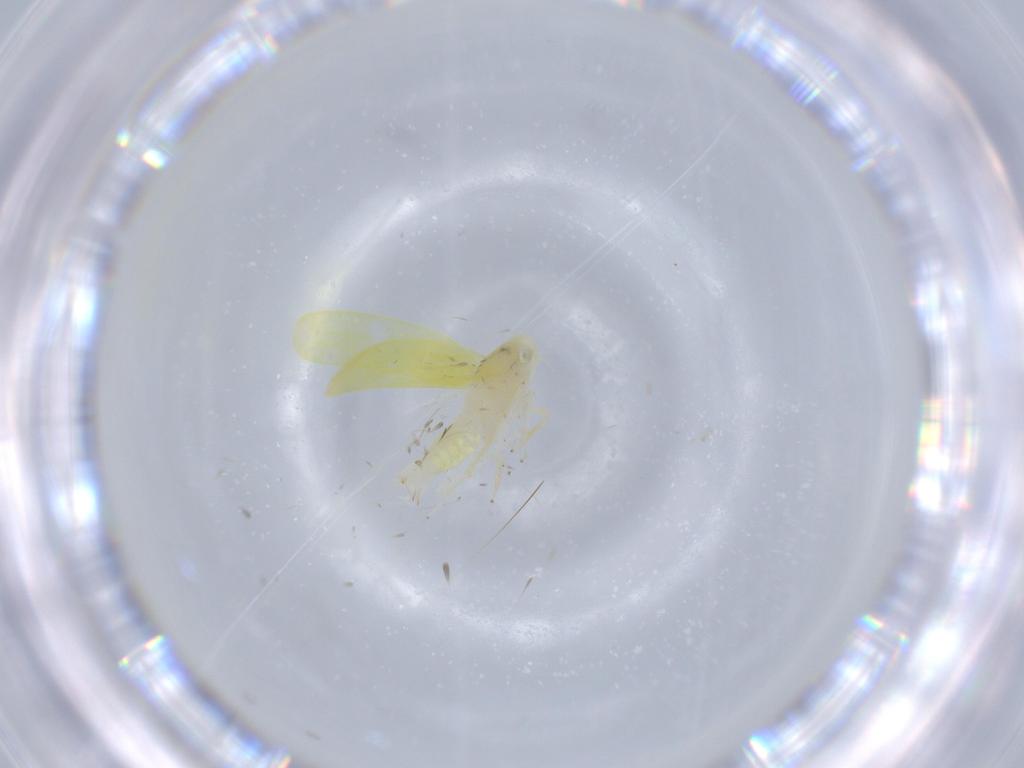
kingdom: Animalia
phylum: Arthropoda
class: Insecta
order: Hemiptera
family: Cicadellidae
